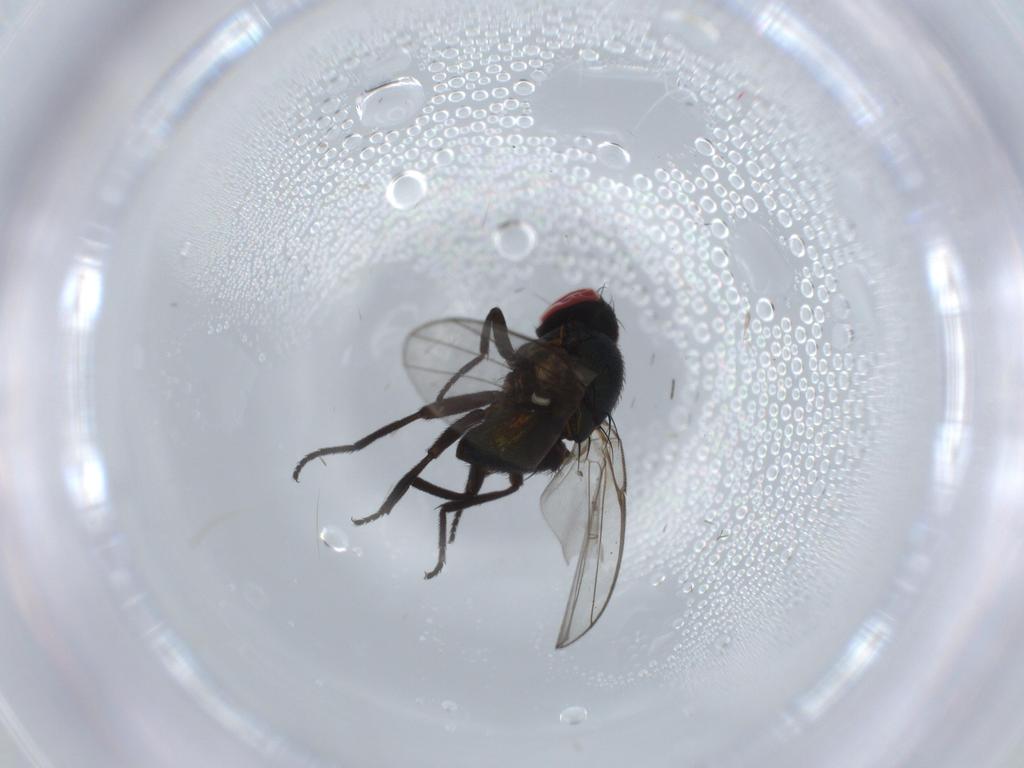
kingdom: Animalia
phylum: Arthropoda
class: Insecta
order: Diptera
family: Agromyzidae
